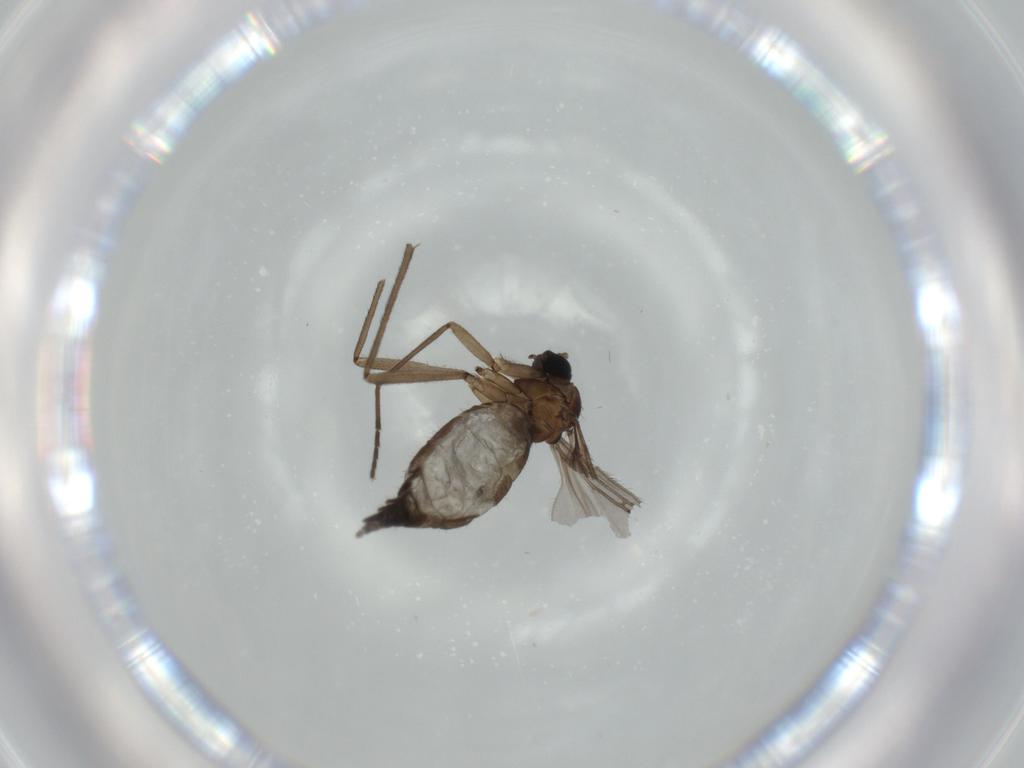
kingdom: Animalia
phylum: Arthropoda
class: Insecta
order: Diptera
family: Sciaridae
